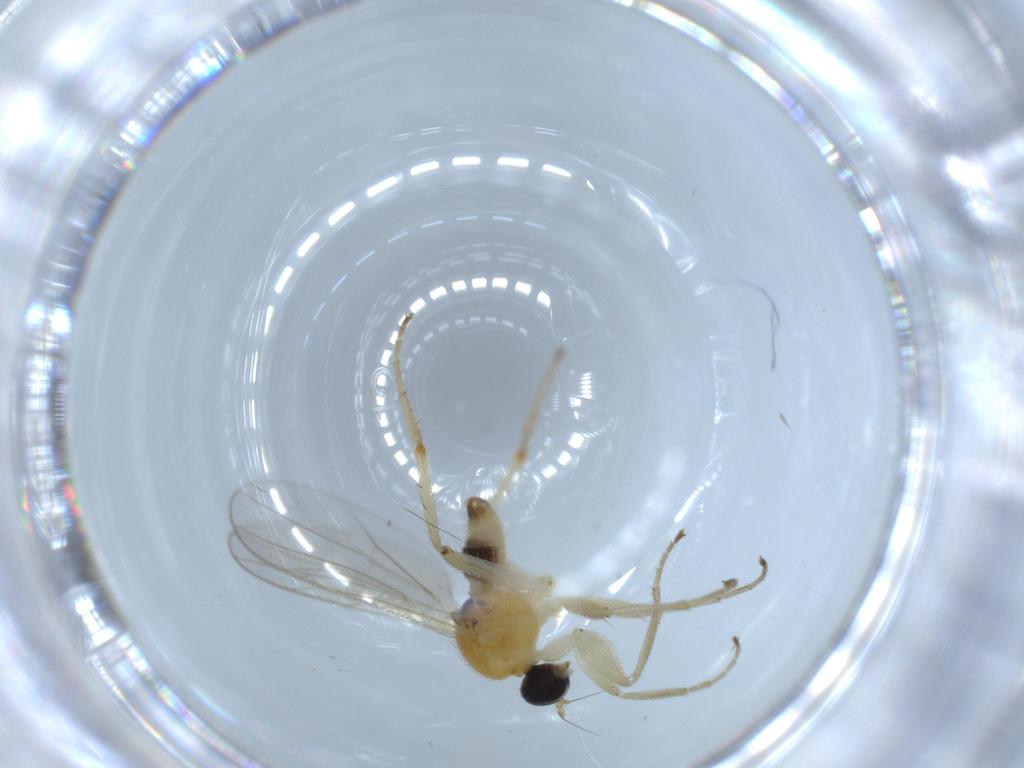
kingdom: Animalia
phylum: Arthropoda
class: Insecta
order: Diptera
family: Hybotidae
